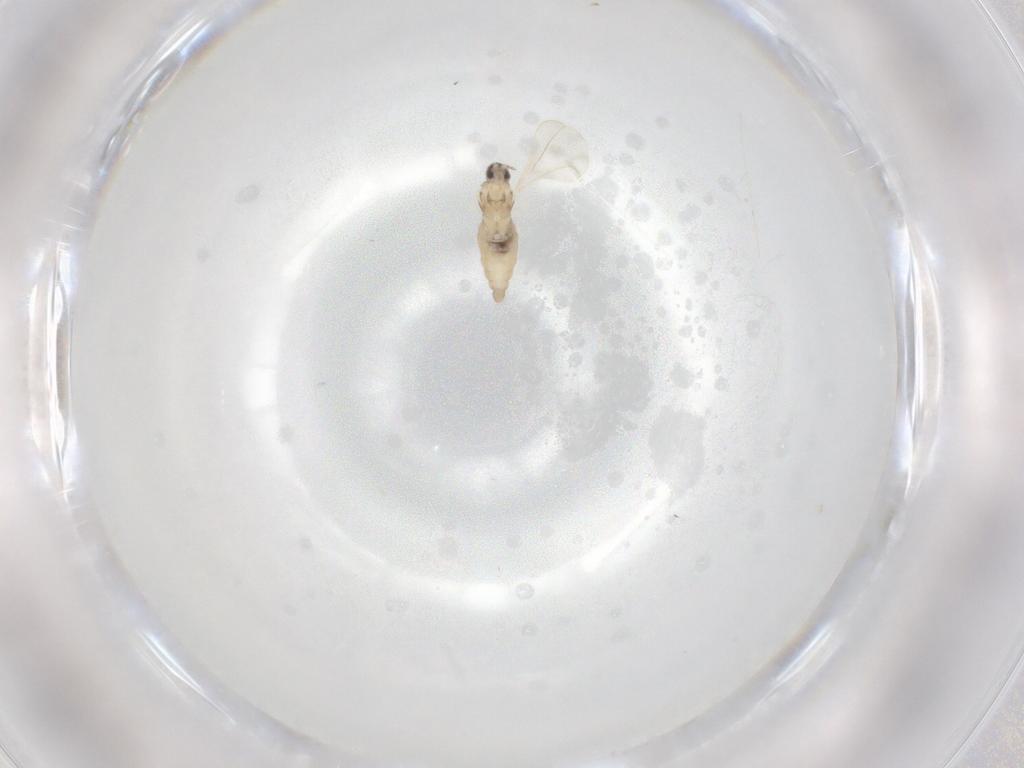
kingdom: Animalia
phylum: Arthropoda
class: Insecta
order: Diptera
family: Cecidomyiidae
